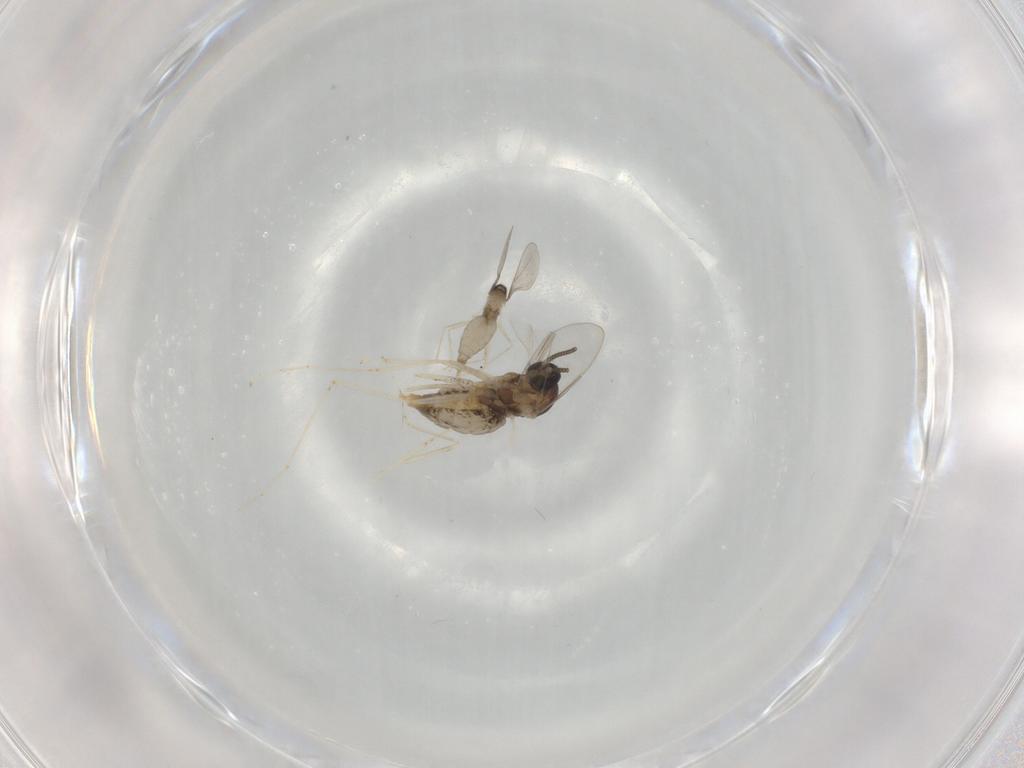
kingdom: Animalia
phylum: Arthropoda
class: Insecta
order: Diptera
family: Cecidomyiidae
